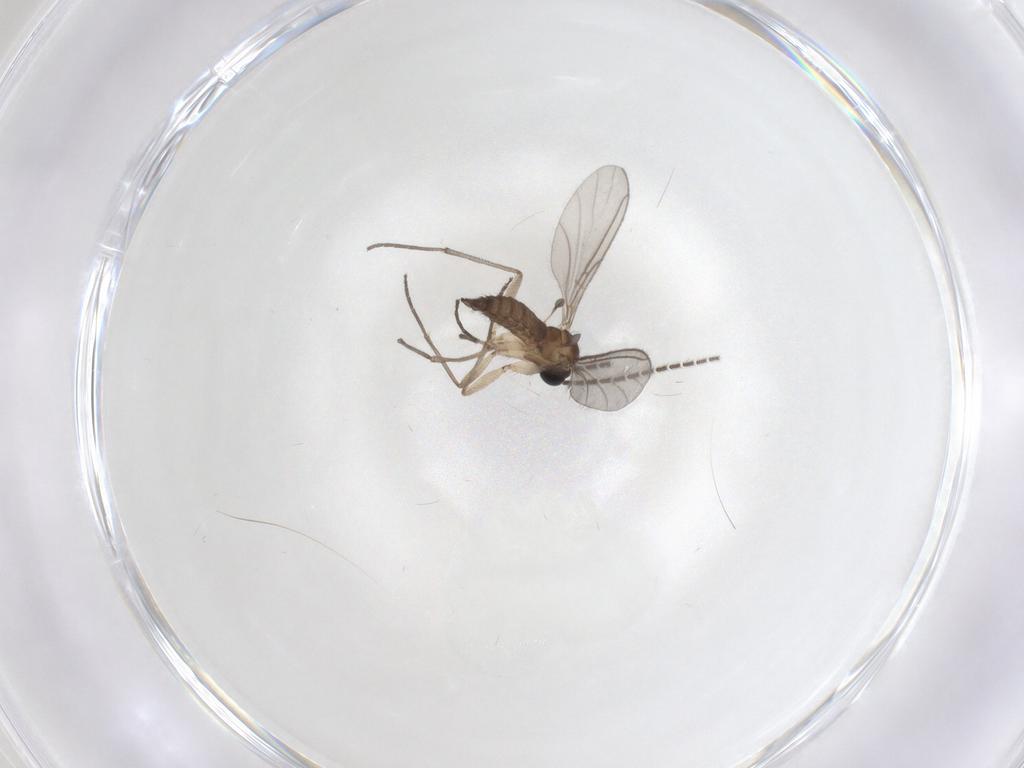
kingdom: Animalia
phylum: Arthropoda
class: Insecta
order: Diptera
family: Sciaridae
